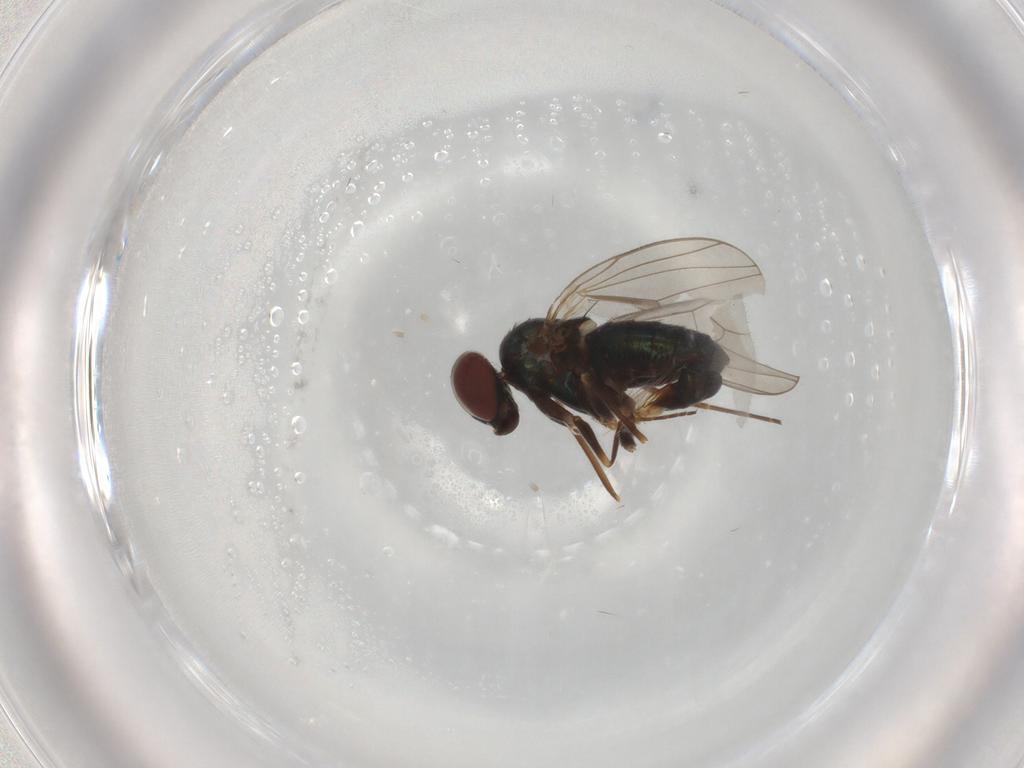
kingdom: Animalia
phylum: Arthropoda
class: Insecta
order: Diptera
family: Dolichopodidae
